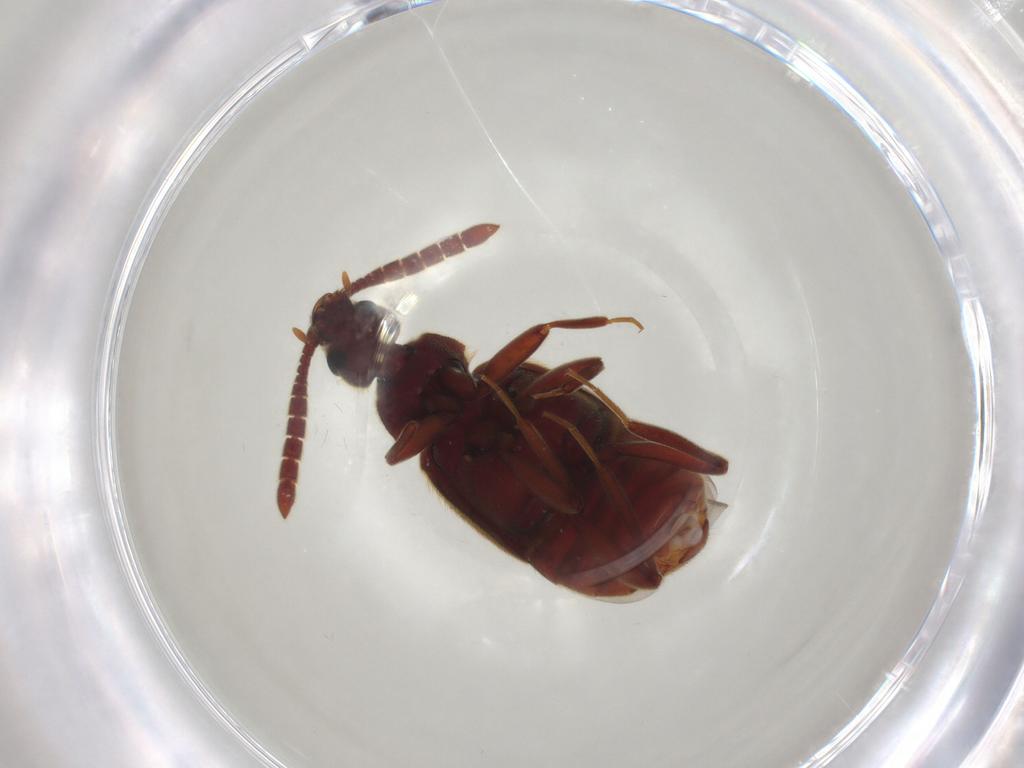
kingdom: Animalia
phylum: Arthropoda
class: Insecta
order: Coleoptera
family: Staphylinidae
